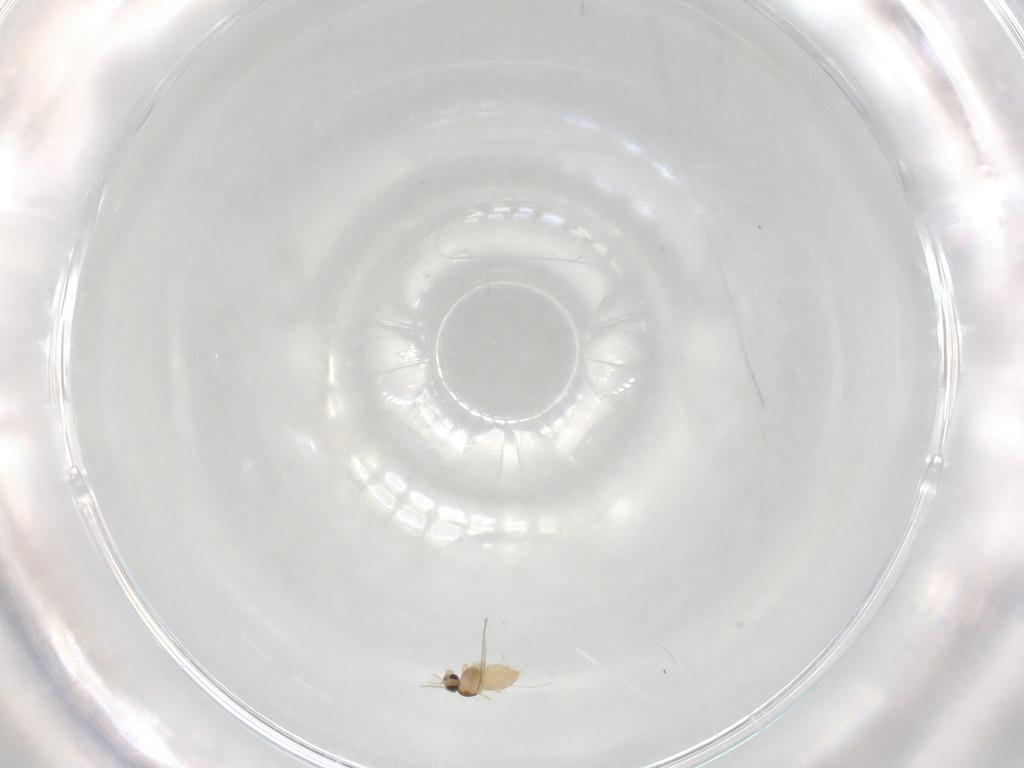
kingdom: Animalia
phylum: Arthropoda
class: Insecta
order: Diptera
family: Cecidomyiidae
